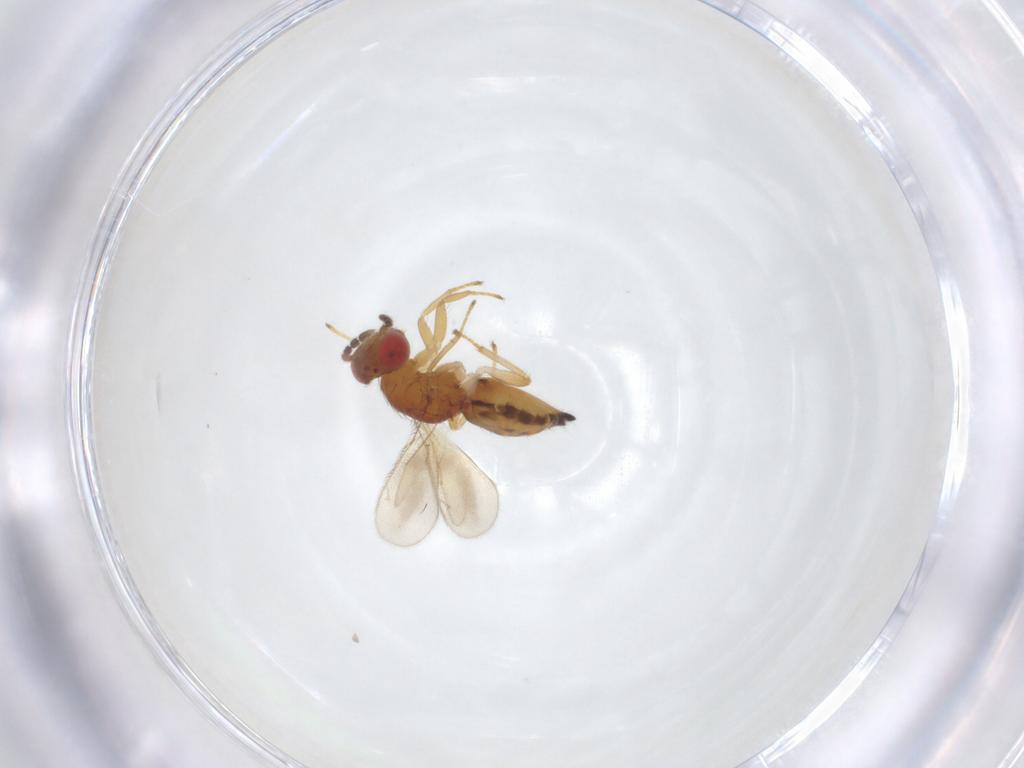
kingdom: Animalia
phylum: Arthropoda
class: Insecta
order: Hymenoptera
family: Eulophidae
